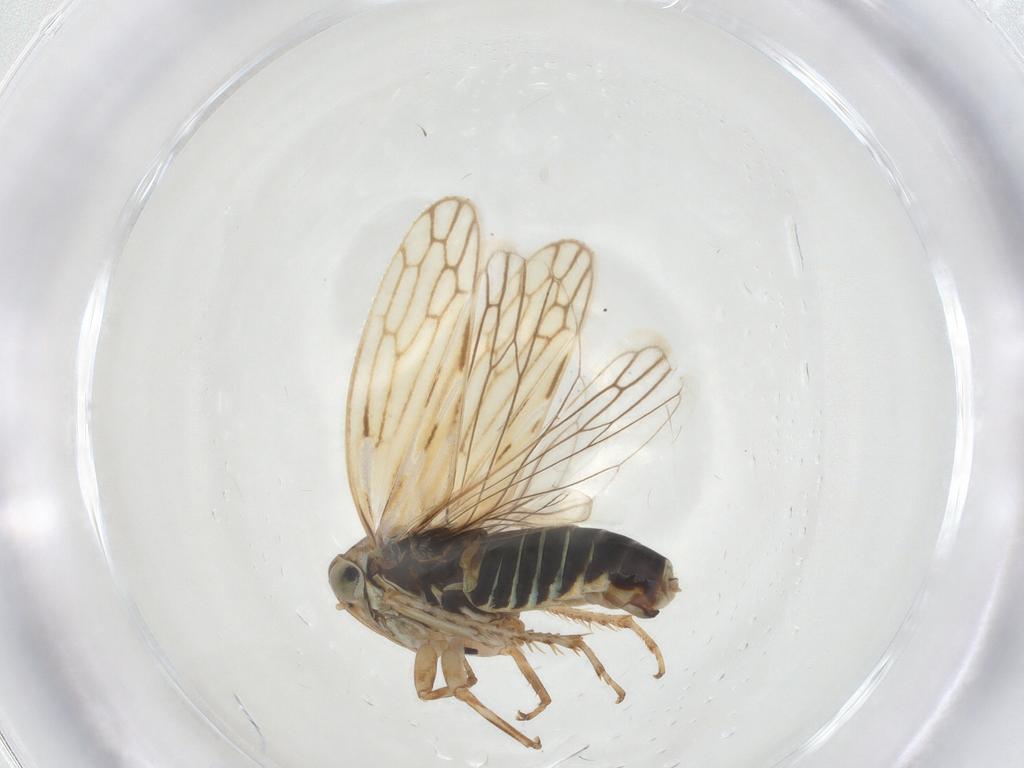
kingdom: Animalia
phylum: Arthropoda
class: Insecta
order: Hemiptera
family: Cicadellidae
